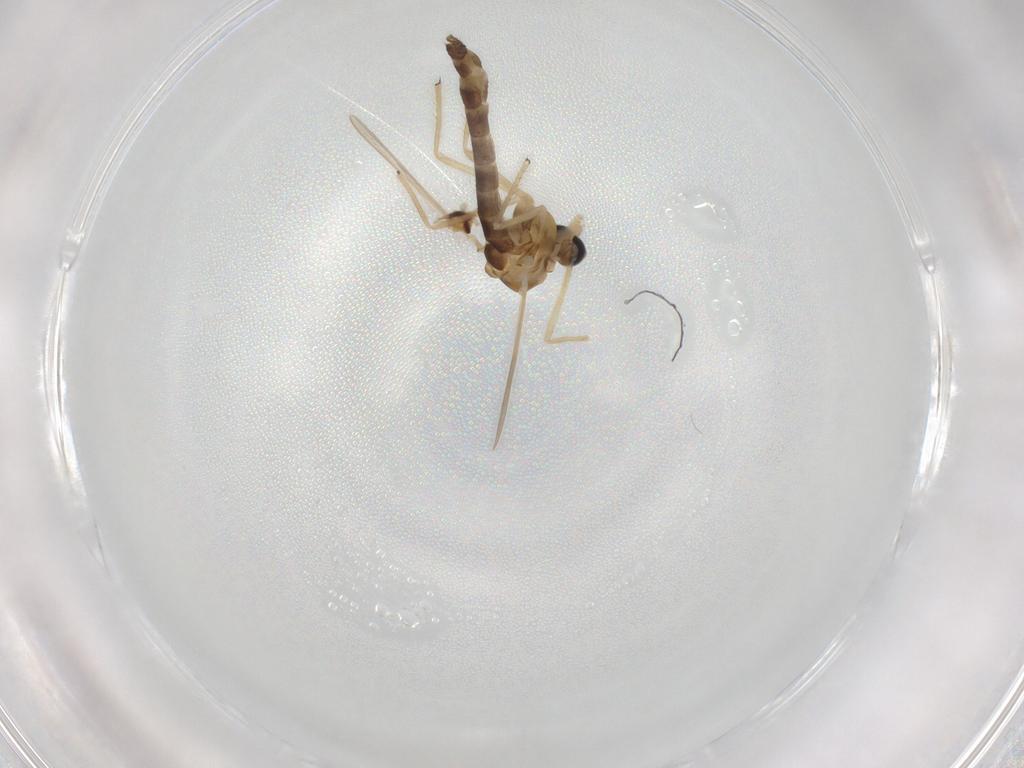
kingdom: Animalia
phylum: Arthropoda
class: Insecta
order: Diptera
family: Chironomidae
